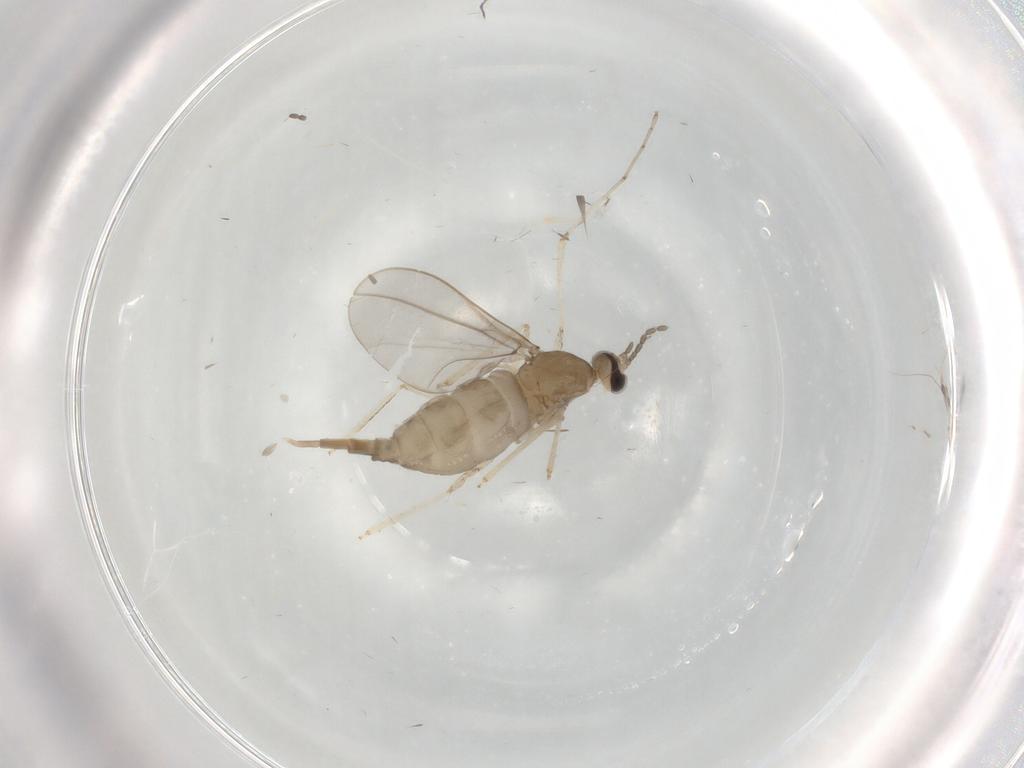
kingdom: Animalia
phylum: Arthropoda
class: Insecta
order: Diptera
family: Cecidomyiidae
